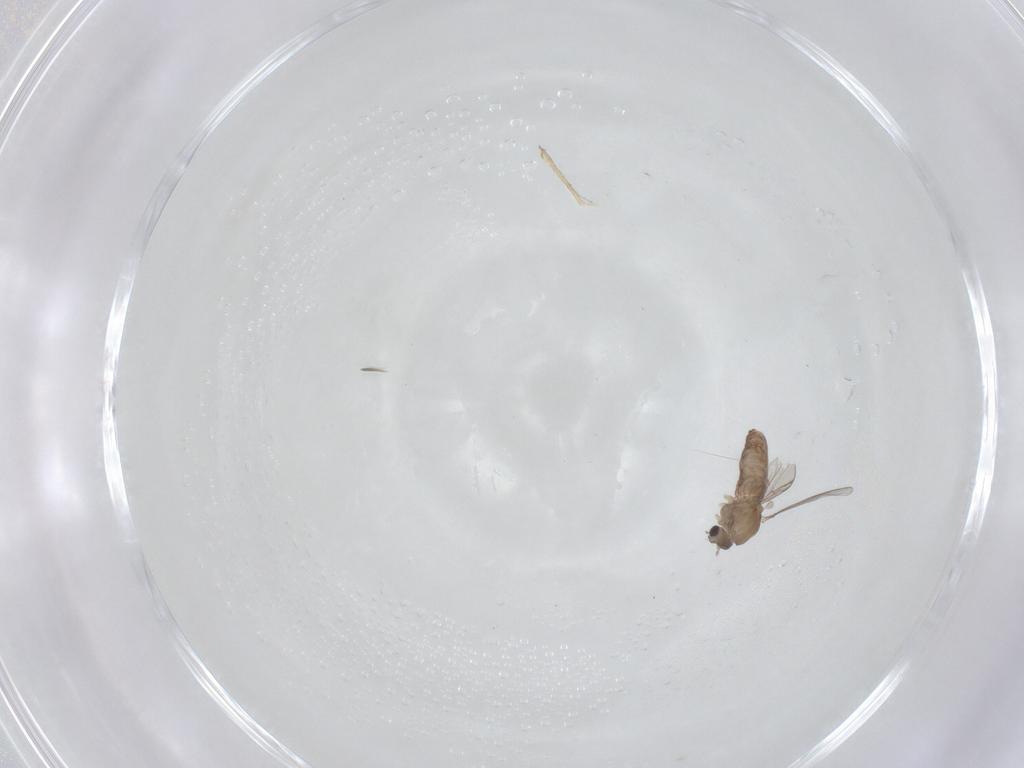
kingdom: Animalia
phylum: Arthropoda
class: Insecta
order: Diptera
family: Chironomidae
